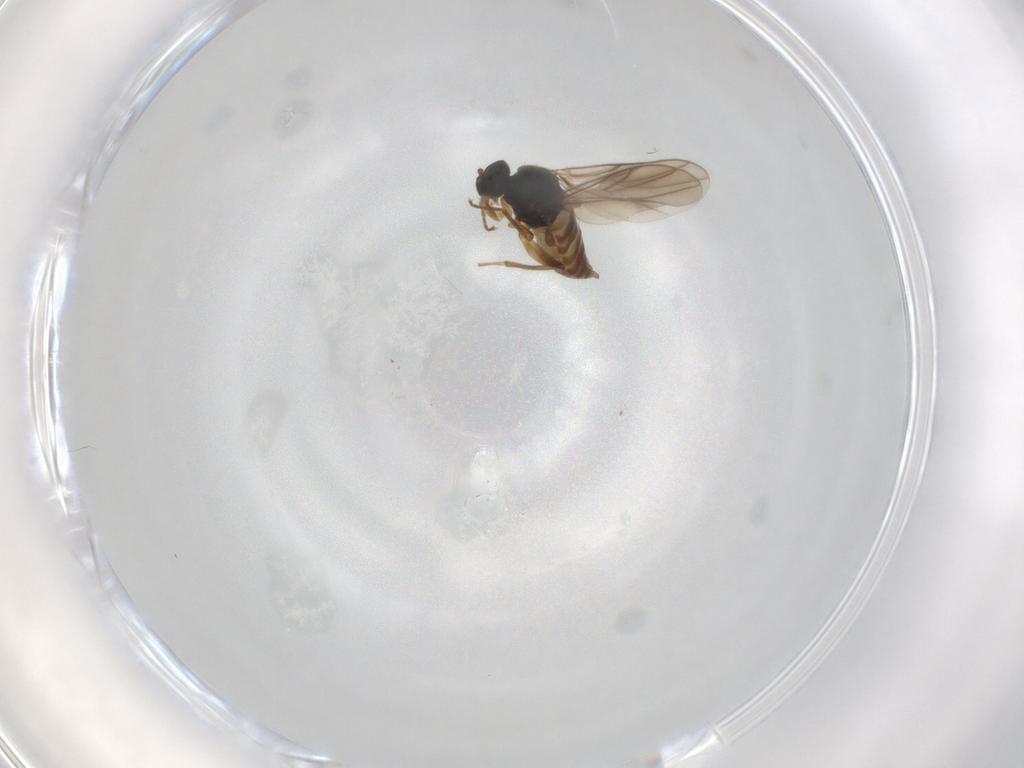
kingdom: Animalia
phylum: Arthropoda
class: Insecta
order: Diptera
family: Hybotidae
